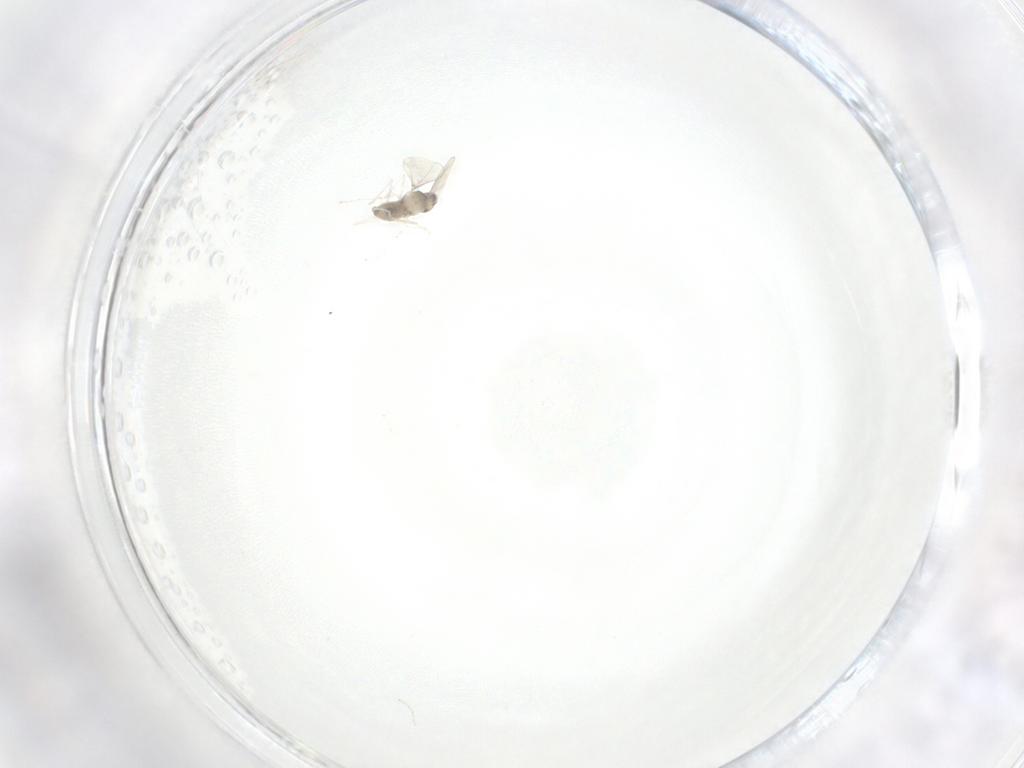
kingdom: Animalia
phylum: Arthropoda
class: Insecta
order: Diptera
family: Cecidomyiidae
